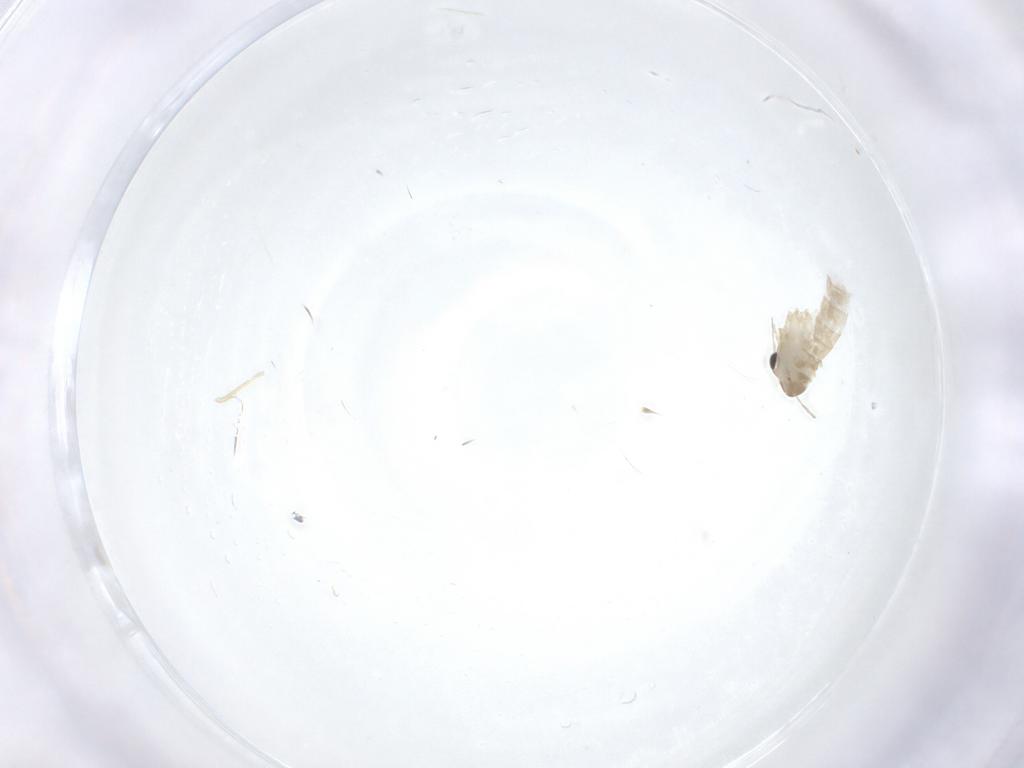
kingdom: Animalia
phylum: Arthropoda
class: Insecta
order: Diptera
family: Psychodidae
